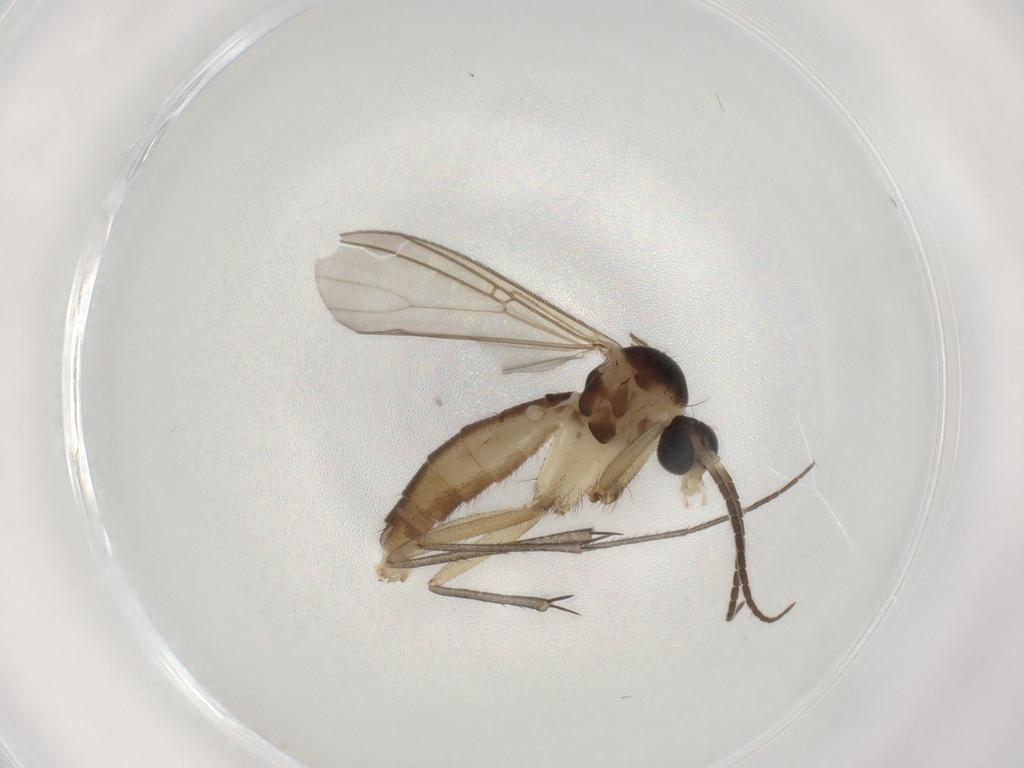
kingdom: Animalia
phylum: Arthropoda
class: Insecta
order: Diptera
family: Muscidae
